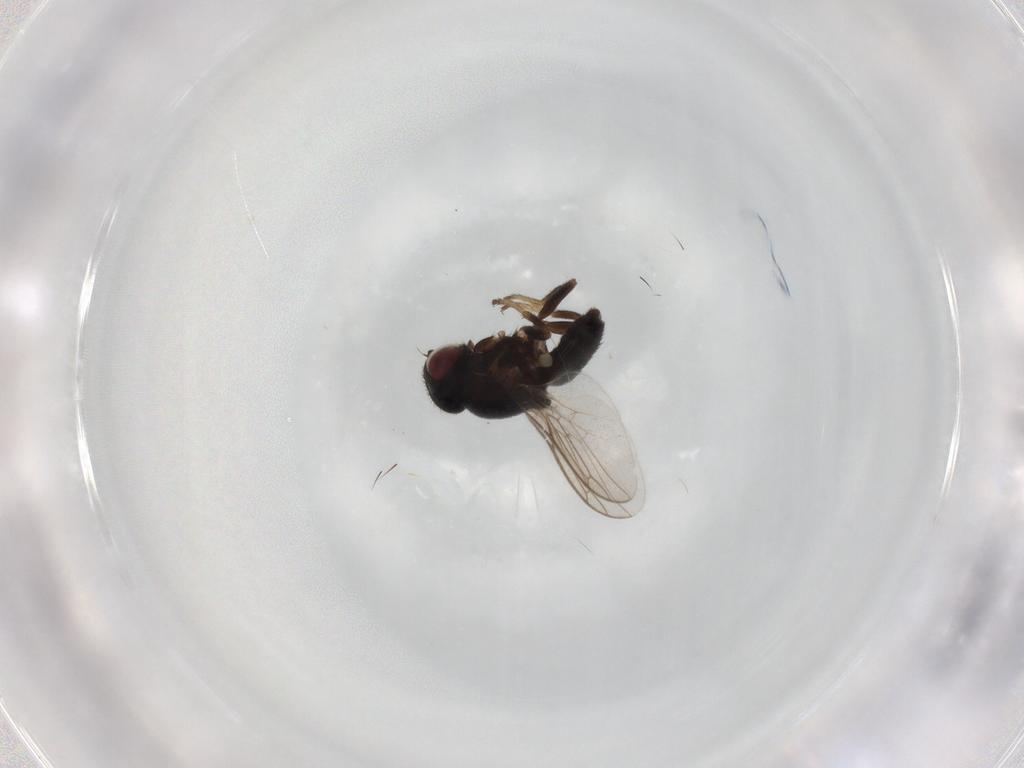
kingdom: Animalia
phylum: Arthropoda
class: Insecta
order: Diptera
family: Chloropidae
